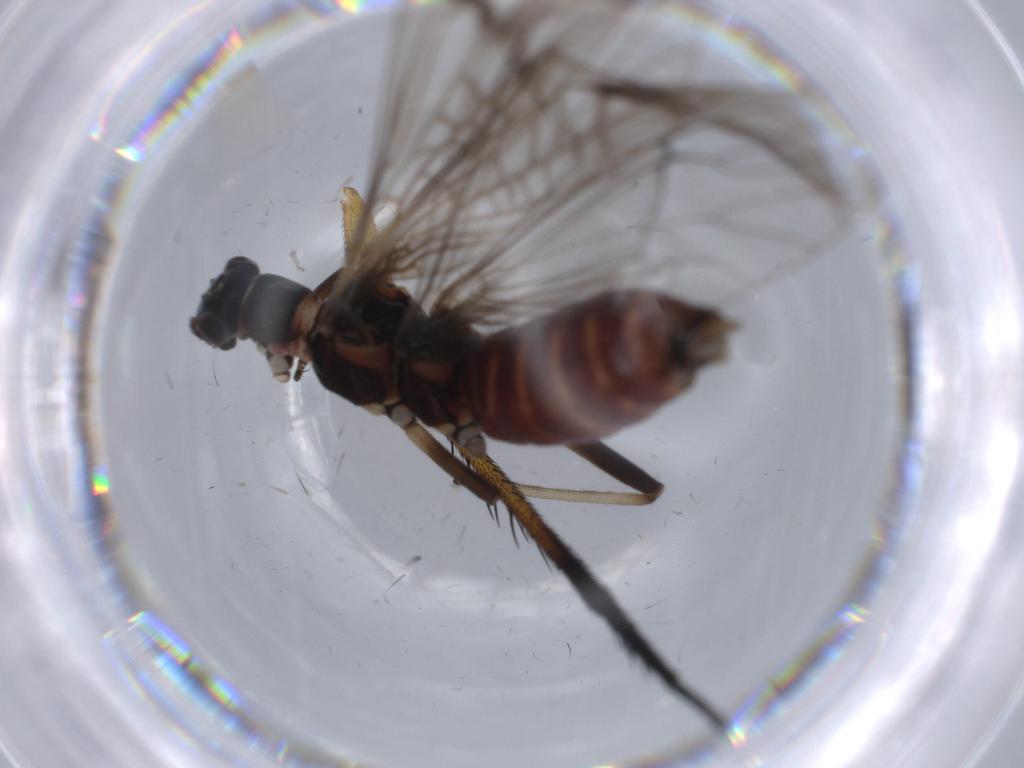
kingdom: Animalia
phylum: Arthropoda
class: Insecta
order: Plecoptera
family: Nemouridae
